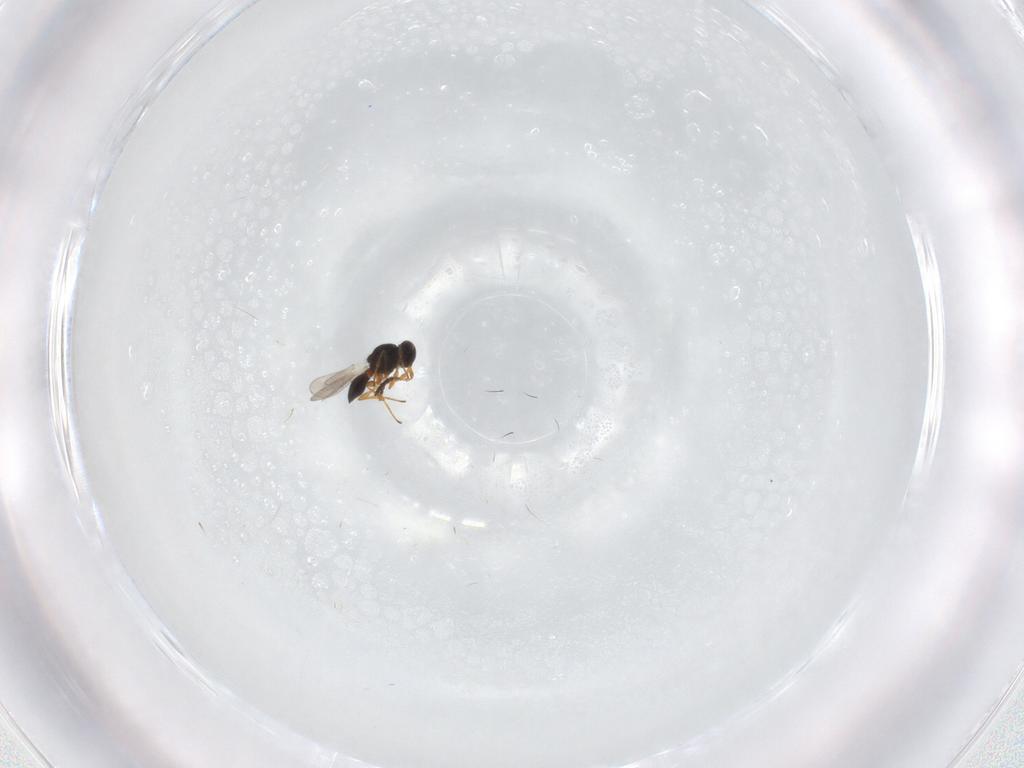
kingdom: Animalia
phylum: Arthropoda
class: Insecta
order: Hymenoptera
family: Platygastridae
